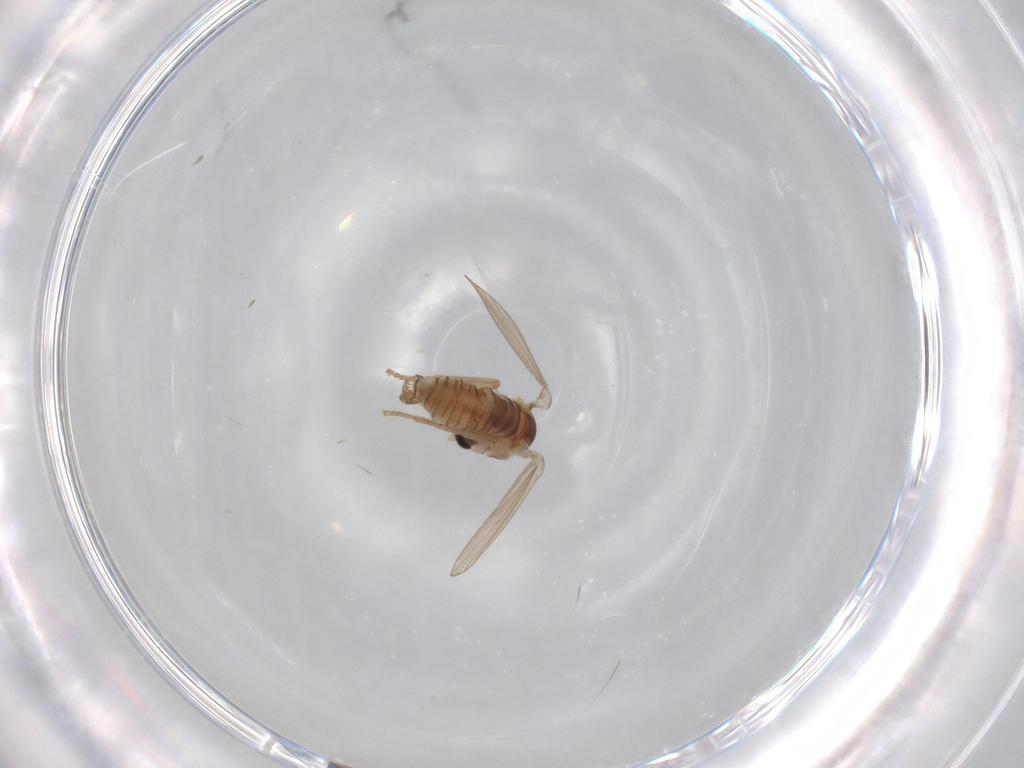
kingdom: Animalia
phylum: Arthropoda
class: Insecta
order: Diptera
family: Psychodidae
